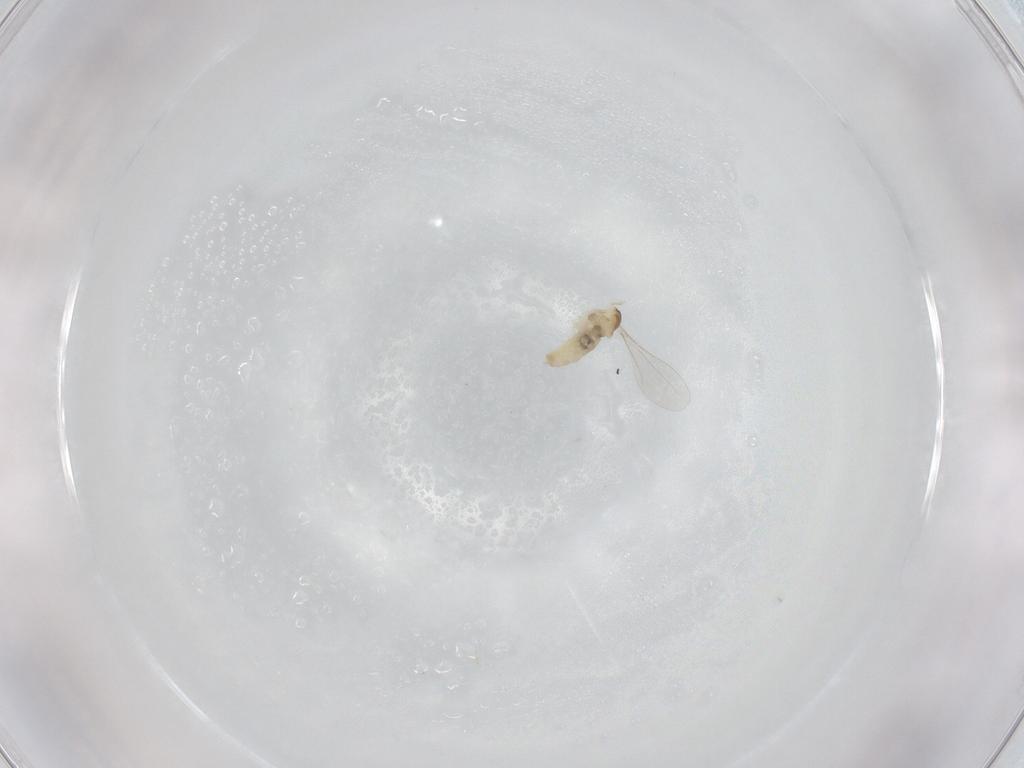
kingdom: Animalia
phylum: Arthropoda
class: Insecta
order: Diptera
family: Cecidomyiidae
